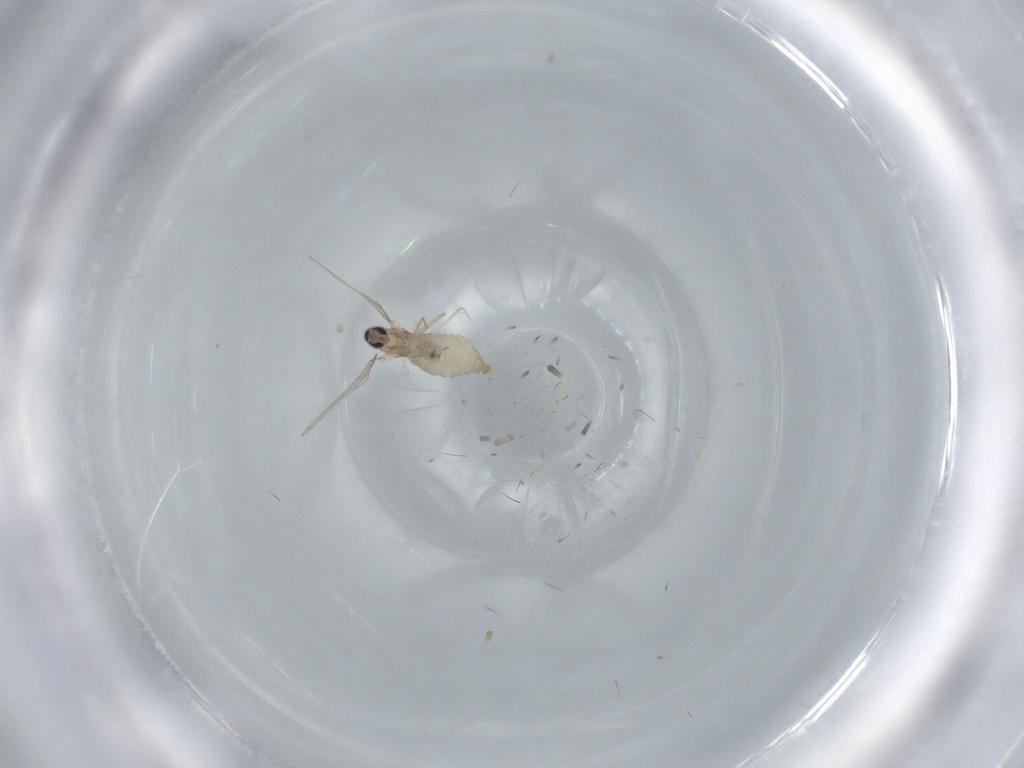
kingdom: Animalia
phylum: Arthropoda
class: Insecta
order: Diptera
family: Cecidomyiidae
